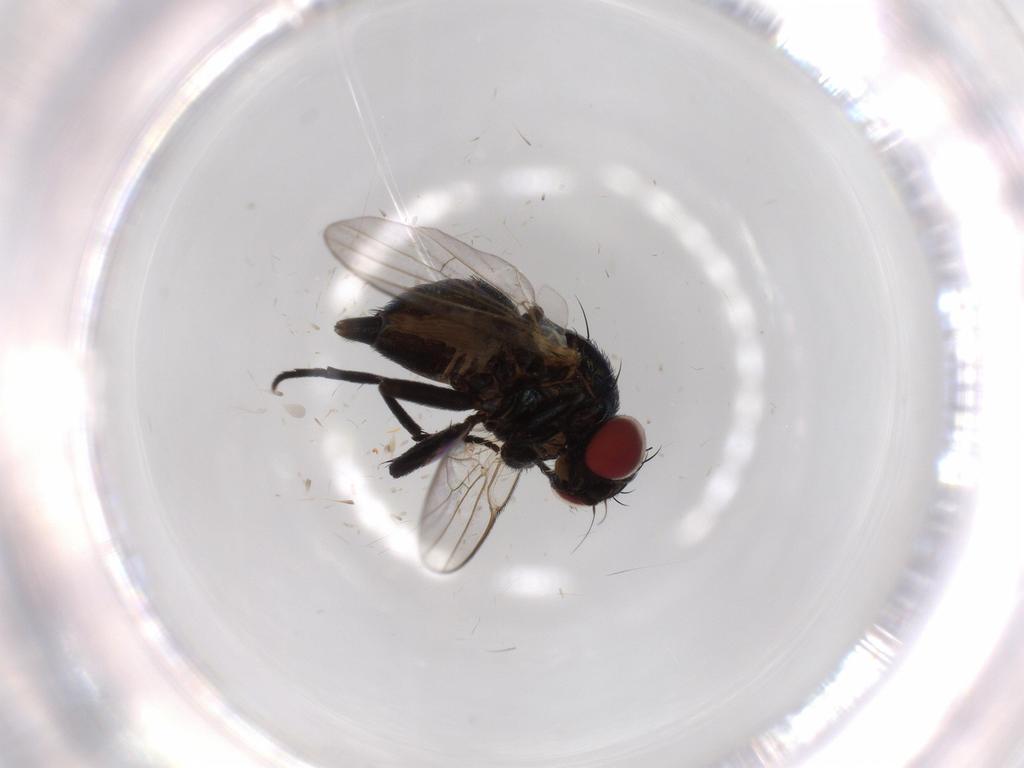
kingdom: Animalia
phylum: Arthropoda
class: Insecta
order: Diptera
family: Agromyzidae
